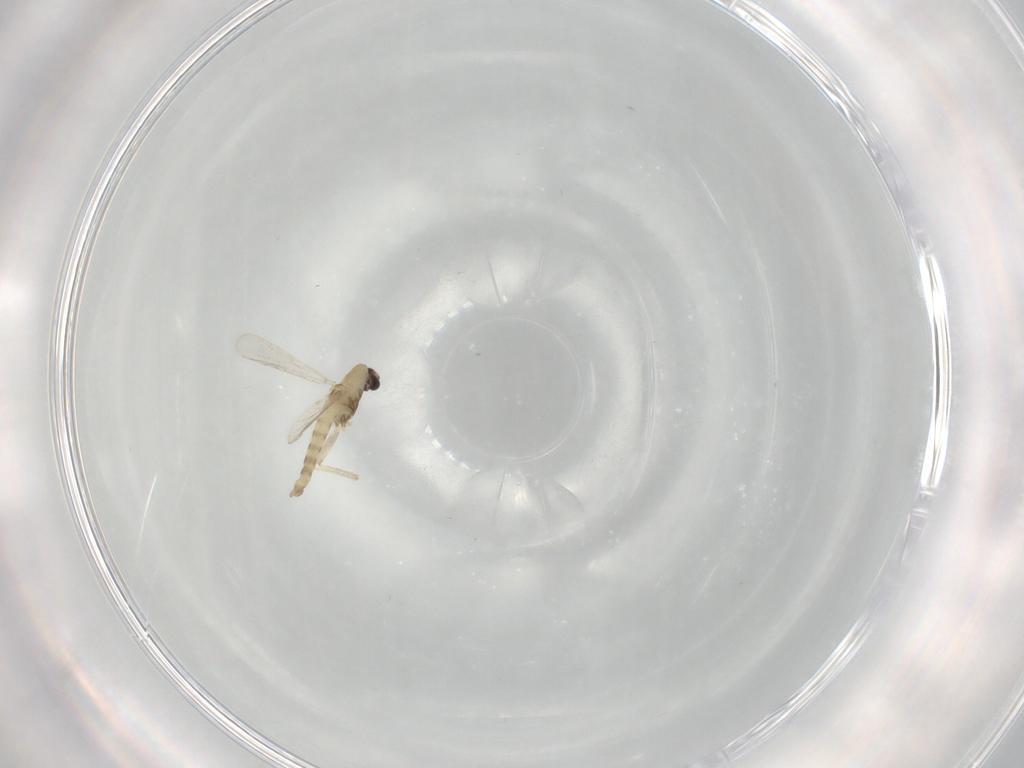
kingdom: Animalia
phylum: Arthropoda
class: Insecta
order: Diptera
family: Chironomidae
